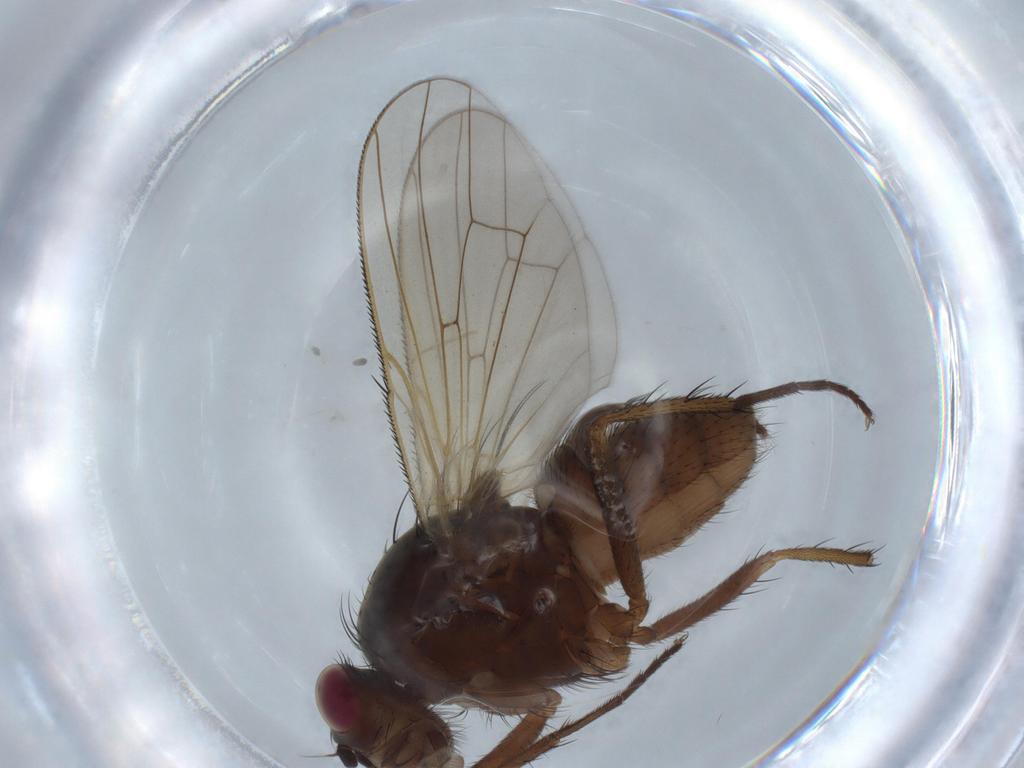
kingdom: Animalia
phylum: Arthropoda
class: Insecta
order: Diptera
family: Anthomyiidae
